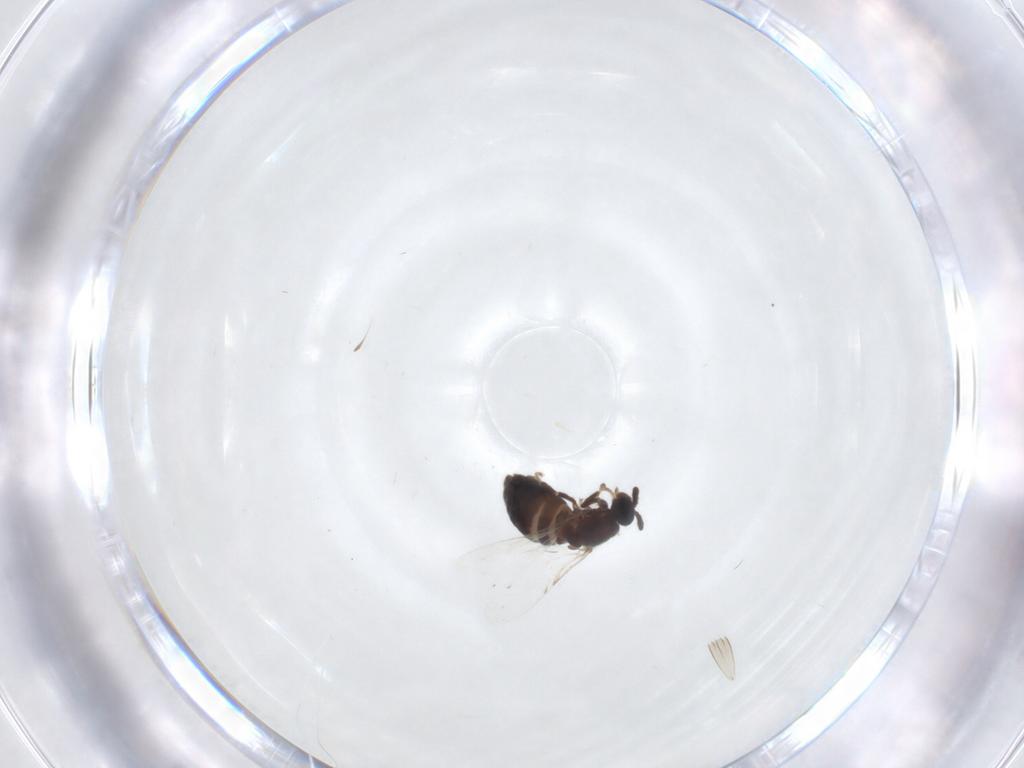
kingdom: Animalia
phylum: Arthropoda
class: Insecta
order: Diptera
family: Scatopsidae
